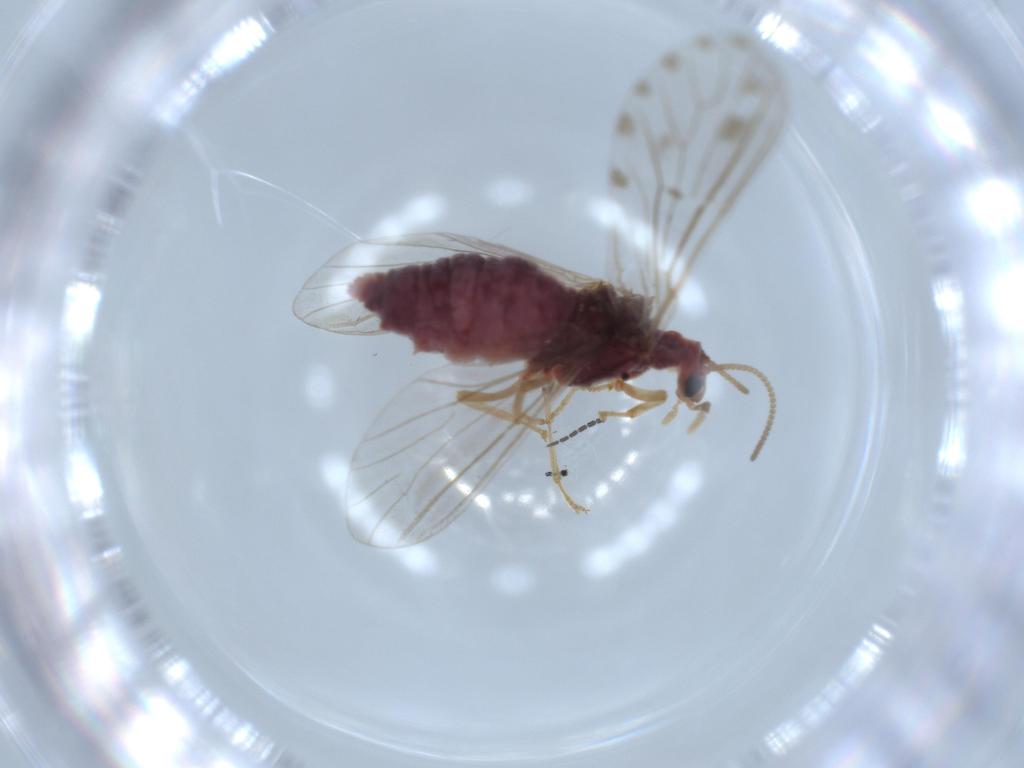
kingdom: Animalia
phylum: Arthropoda
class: Insecta
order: Neuroptera
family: Coniopterygidae
